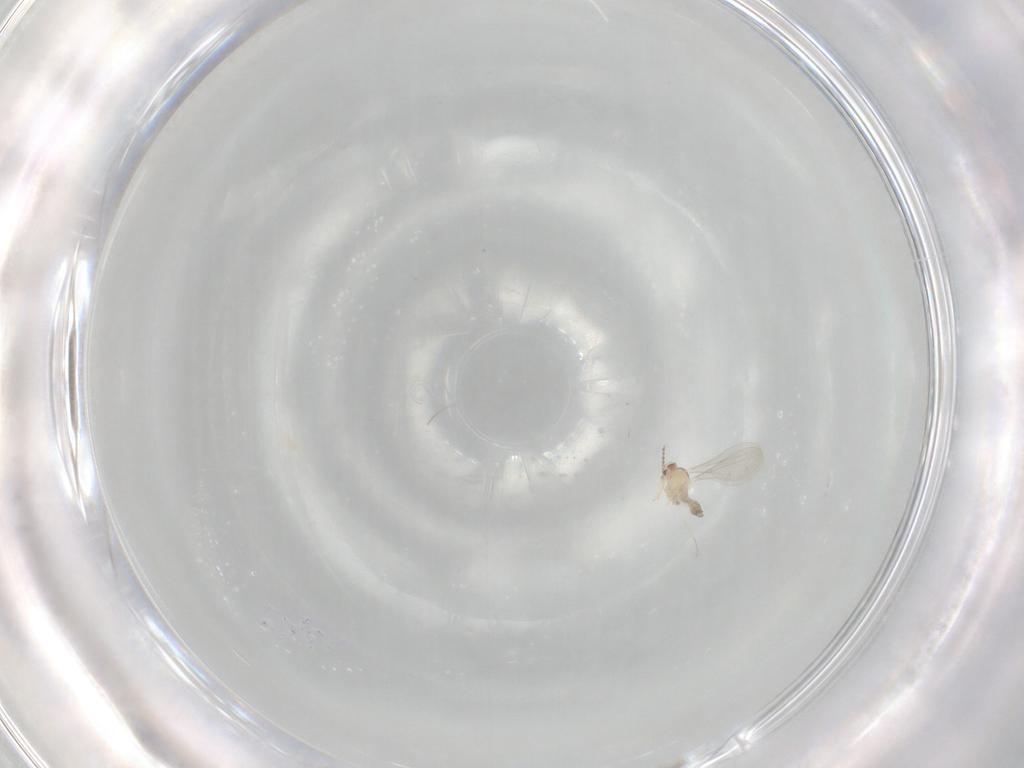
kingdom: Animalia
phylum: Arthropoda
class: Insecta
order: Diptera
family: Cecidomyiidae
